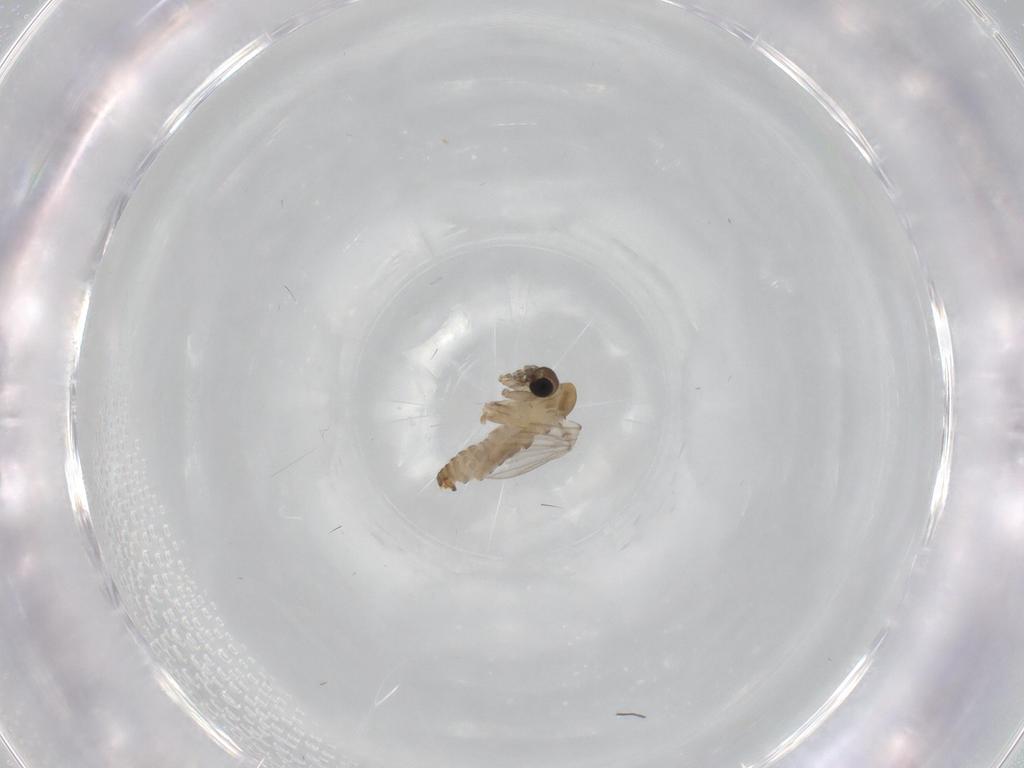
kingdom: Animalia
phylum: Arthropoda
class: Insecta
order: Diptera
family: Psychodidae
